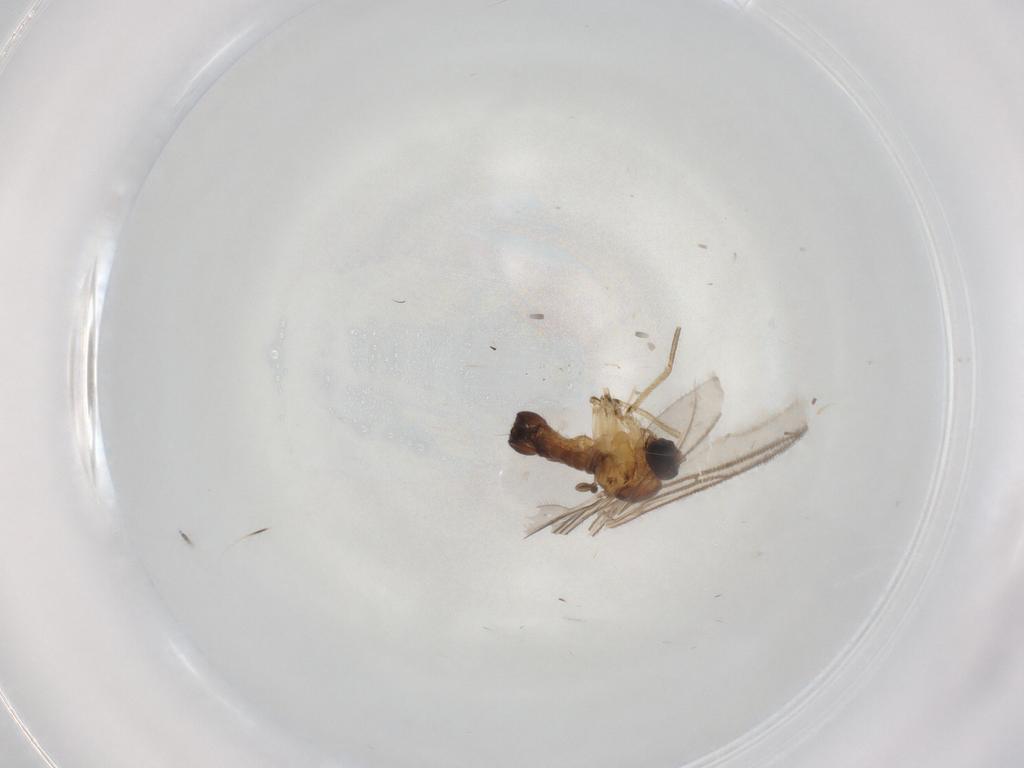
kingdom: Animalia
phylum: Arthropoda
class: Insecta
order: Diptera
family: Sciaridae
